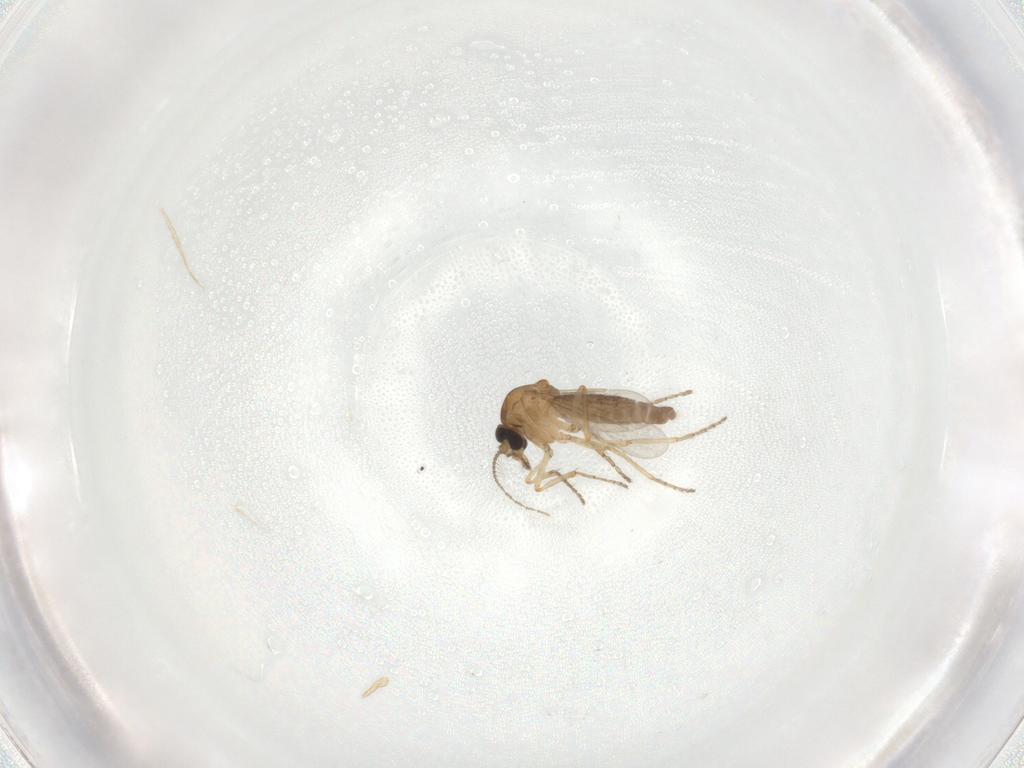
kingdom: Animalia
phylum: Arthropoda
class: Insecta
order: Diptera
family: Ceratopogonidae
